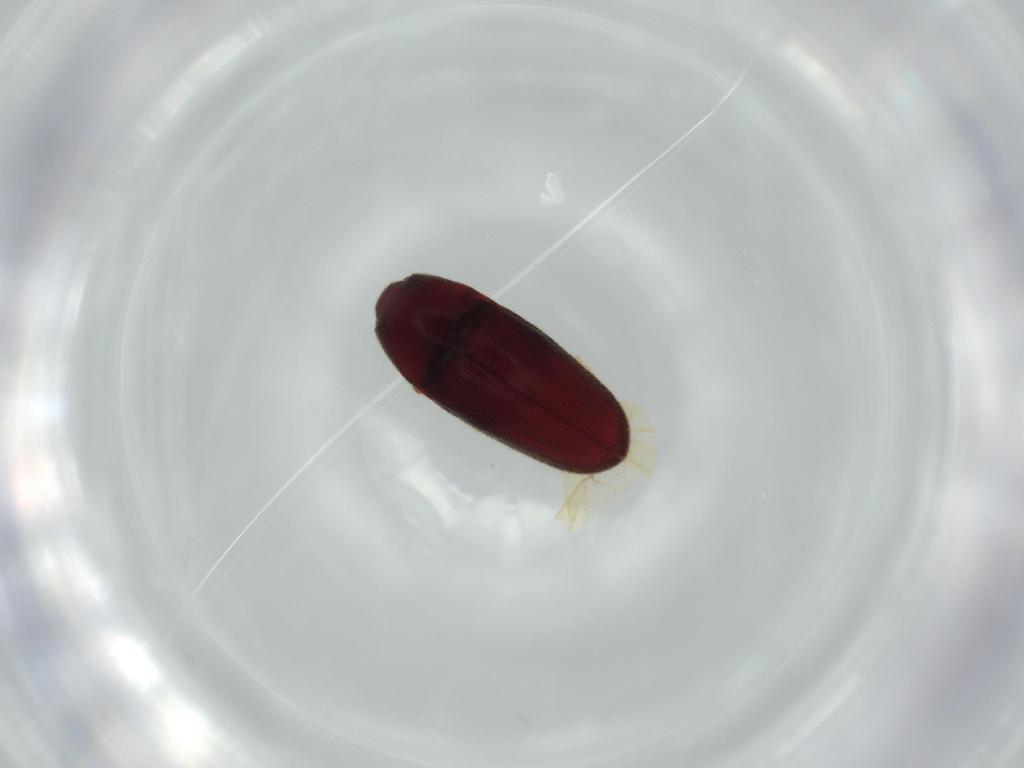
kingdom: Animalia
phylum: Arthropoda
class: Insecta
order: Coleoptera
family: Throscidae
